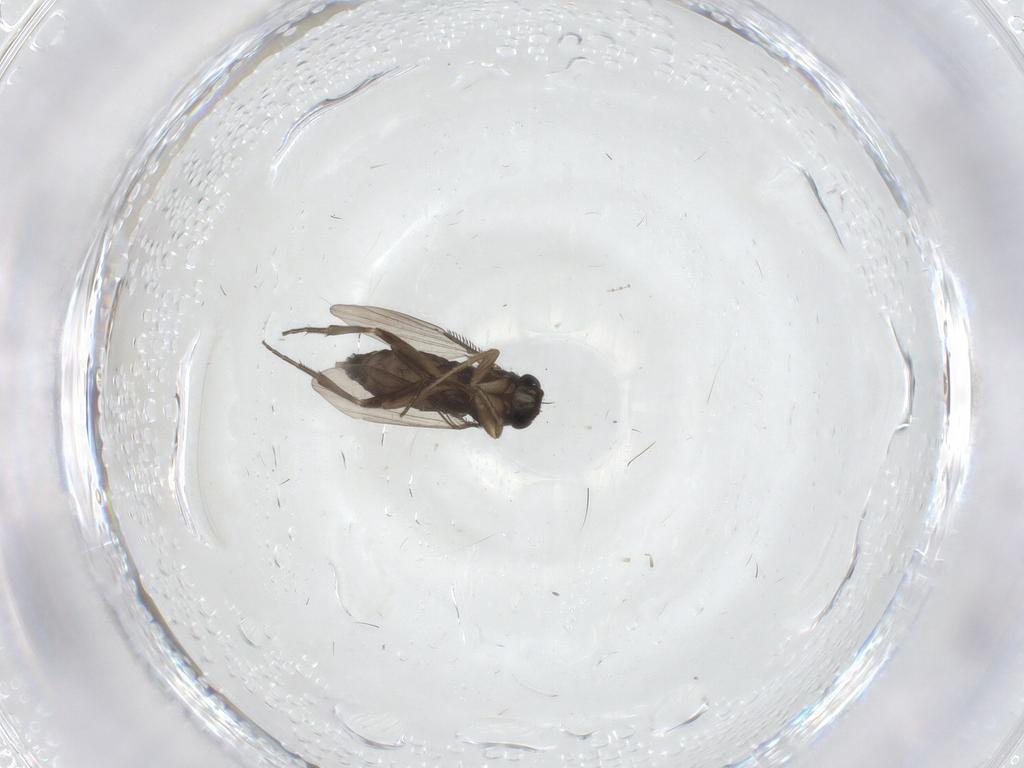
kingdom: Animalia
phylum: Arthropoda
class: Insecta
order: Diptera
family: Phoridae
